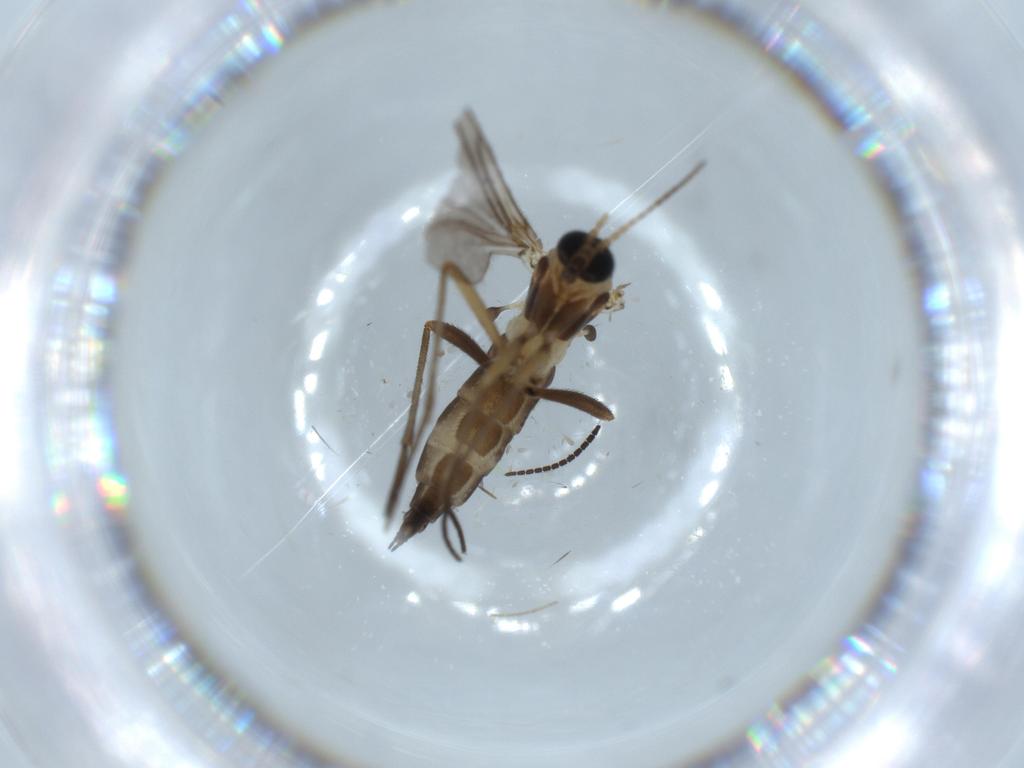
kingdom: Animalia
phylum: Arthropoda
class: Insecta
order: Diptera
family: Sciaridae
